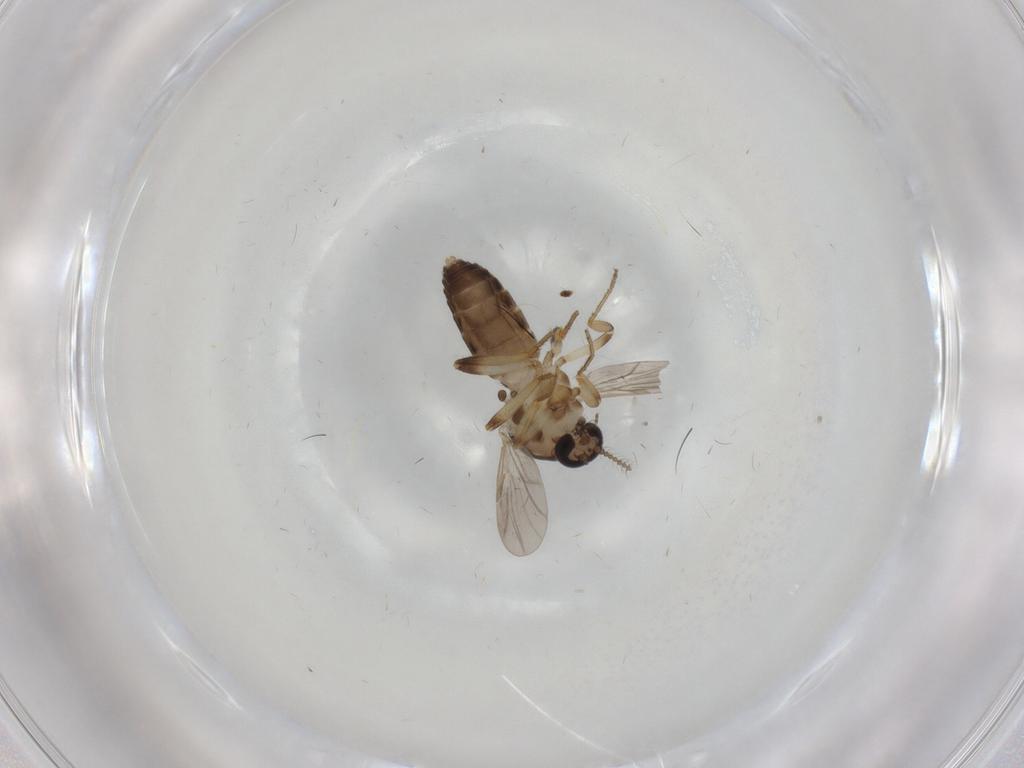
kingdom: Animalia
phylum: Arthropoda
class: Insecta
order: Diptera
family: Ceratopogonidae
